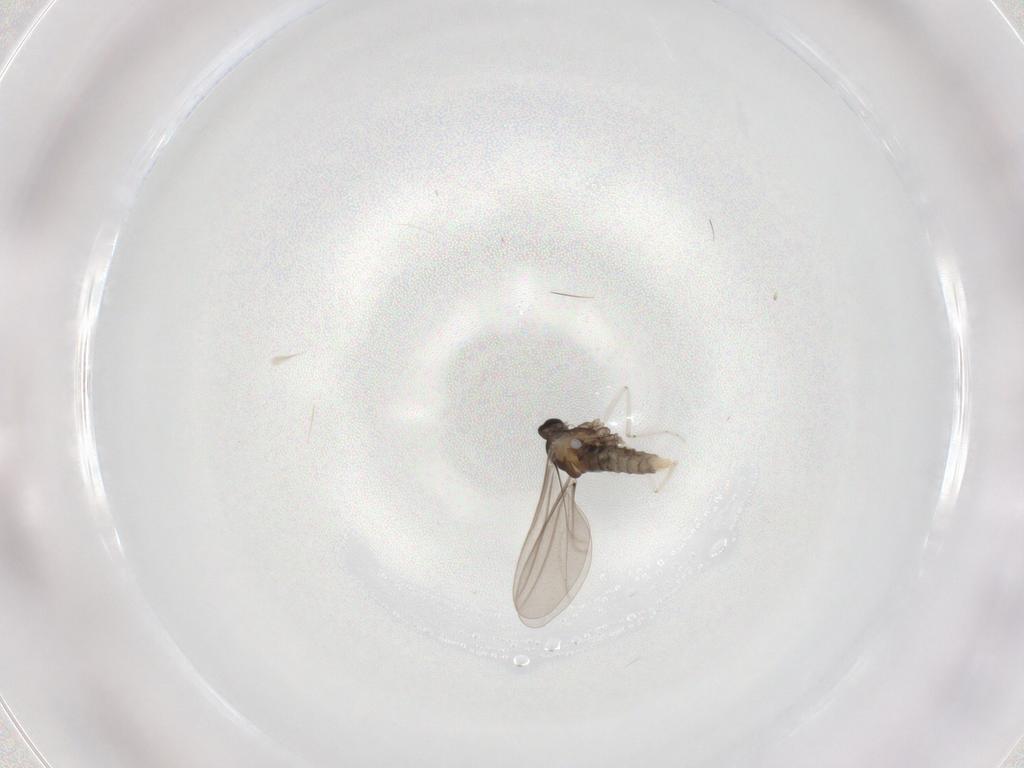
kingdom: Animalia
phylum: Arthropoda
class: Insecta
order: Diptera
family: Cecidomyiidae
